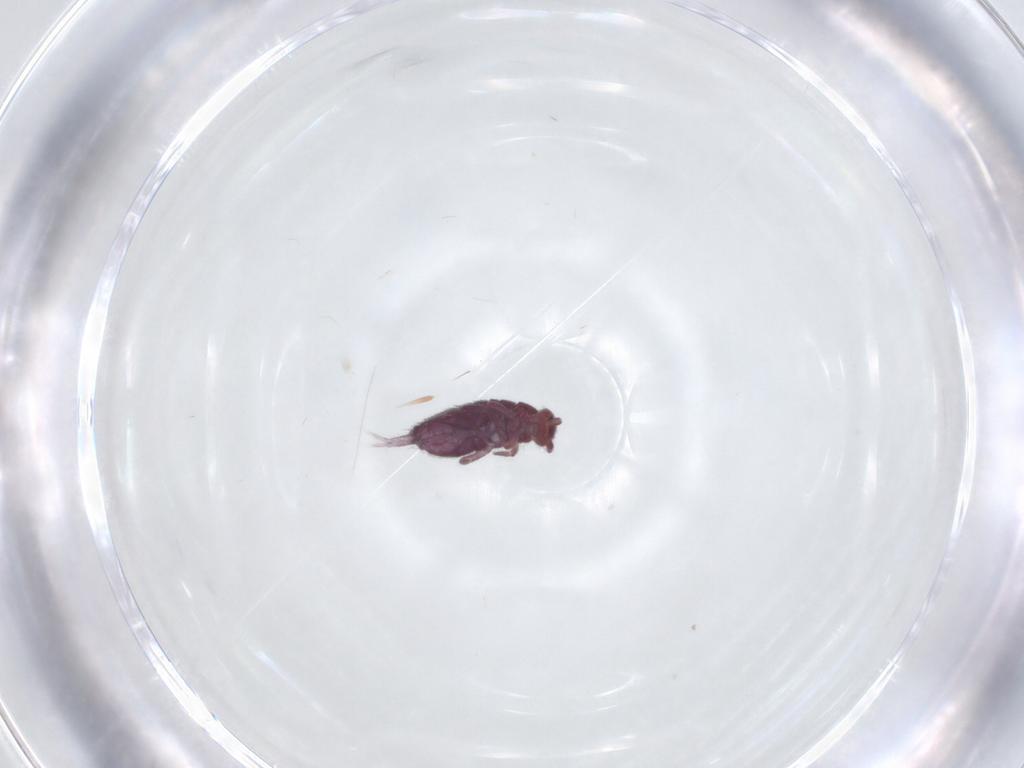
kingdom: Animalia
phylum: Arthropoda
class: Collembola
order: Entomobryomorpha
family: Entomobryidae
